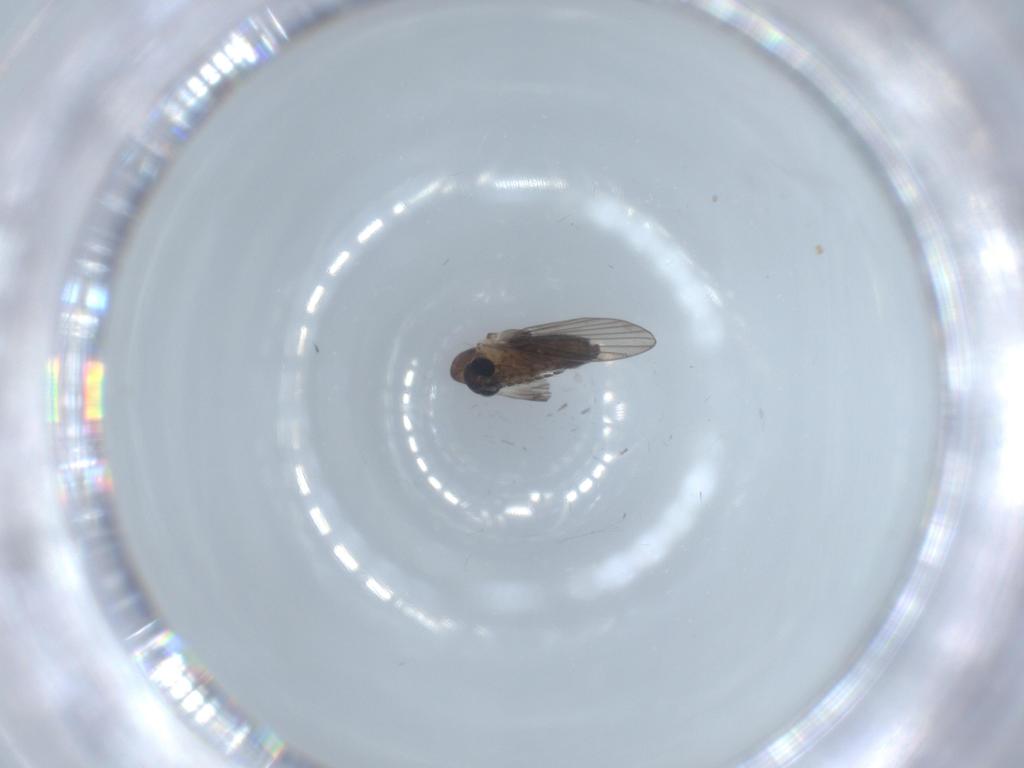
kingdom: Animalia
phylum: Arthropoda
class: Insecta
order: Diptera
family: Psychodidae
